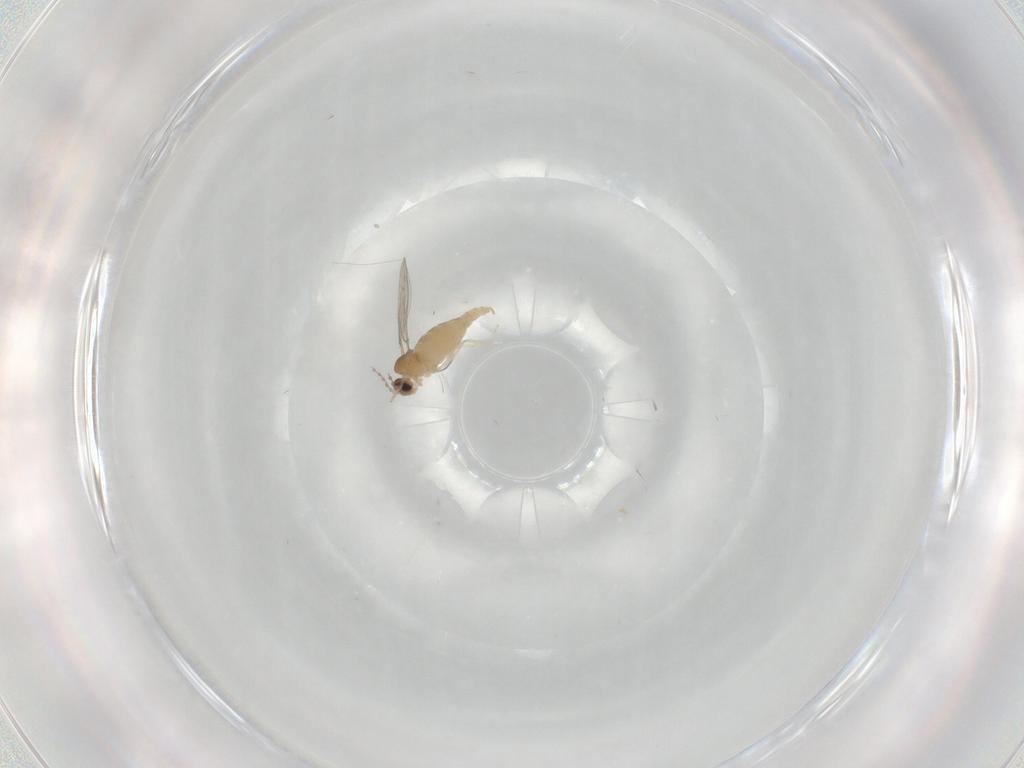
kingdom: Animalia
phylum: Arthropoda
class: Insecta
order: Diptera
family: Cecidomyiidae
